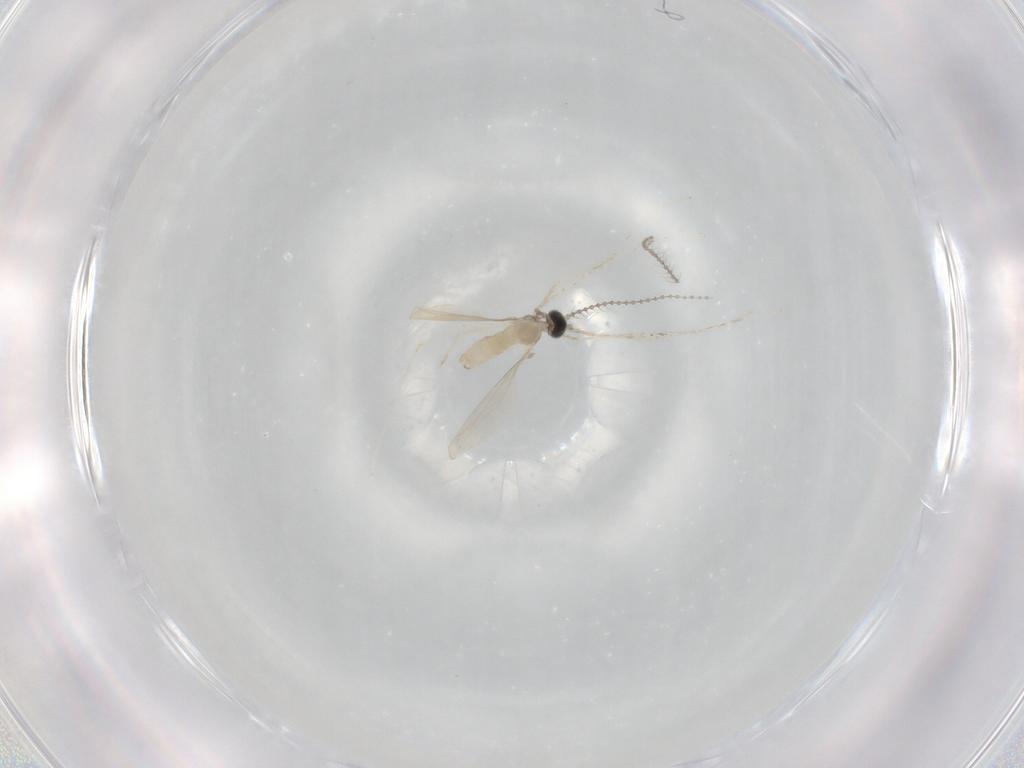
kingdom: Animalia
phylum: Arthropoda
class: Insecta
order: Diptera
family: Cecidomyiidae
